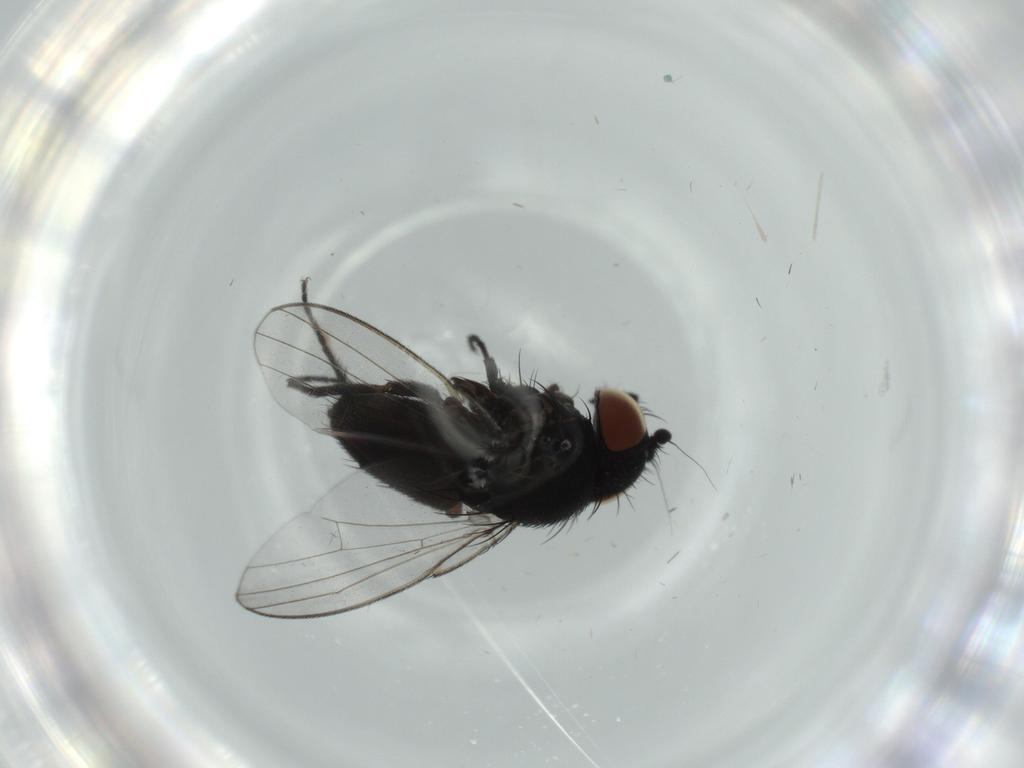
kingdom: Animalia
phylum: Arthropoda
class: Insecta
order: Diptera
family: Milichiidae
